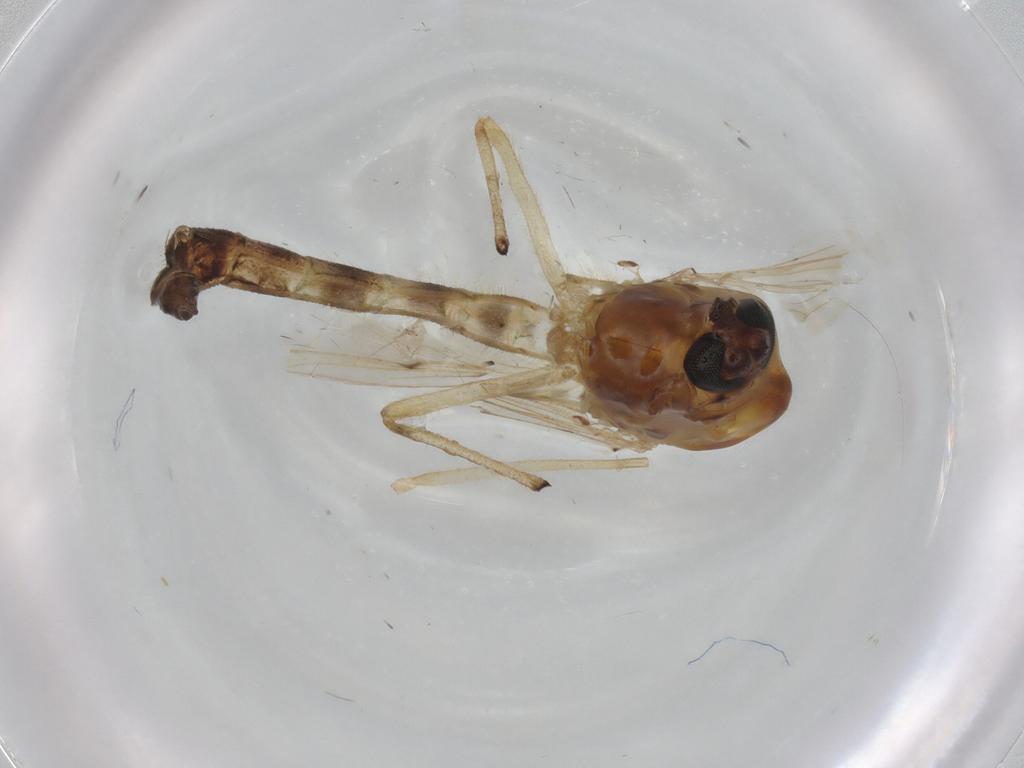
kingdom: Animalia
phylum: Arthropoda
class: Insecta
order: Diptera
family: Chironomidae
